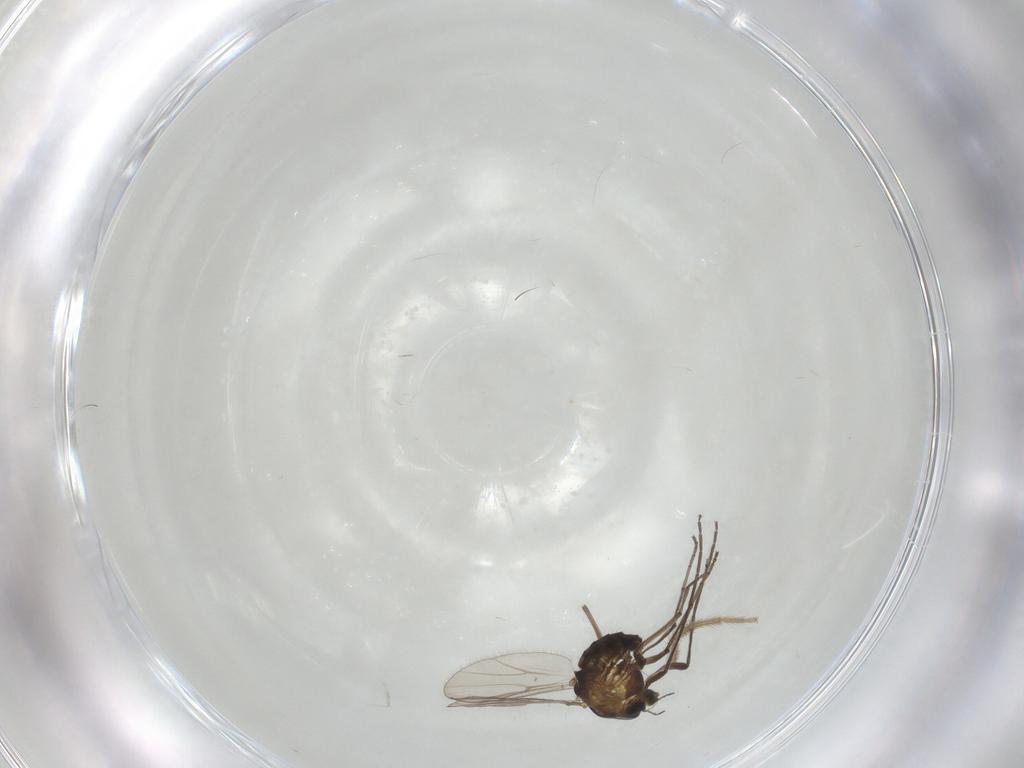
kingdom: Animalia
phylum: Arthropoda
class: Insecta
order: Diptera
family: Chironomidae
